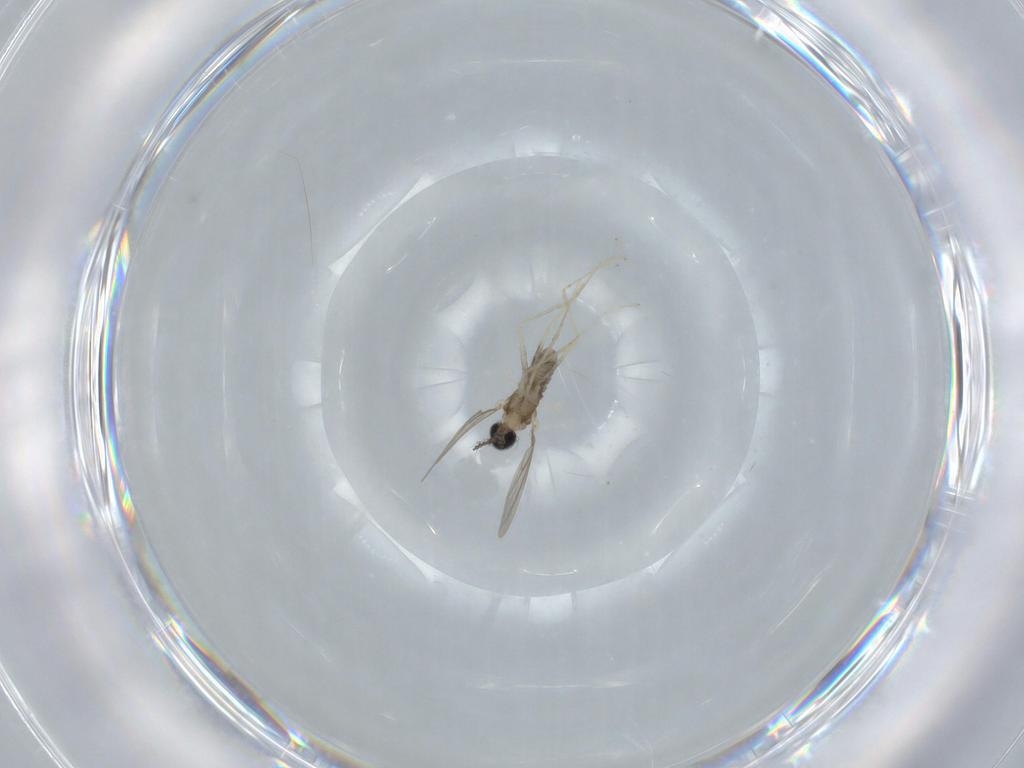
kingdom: Animalia
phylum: Arthropoda
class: Insecta
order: Diptera
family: Cecidomyiidae
